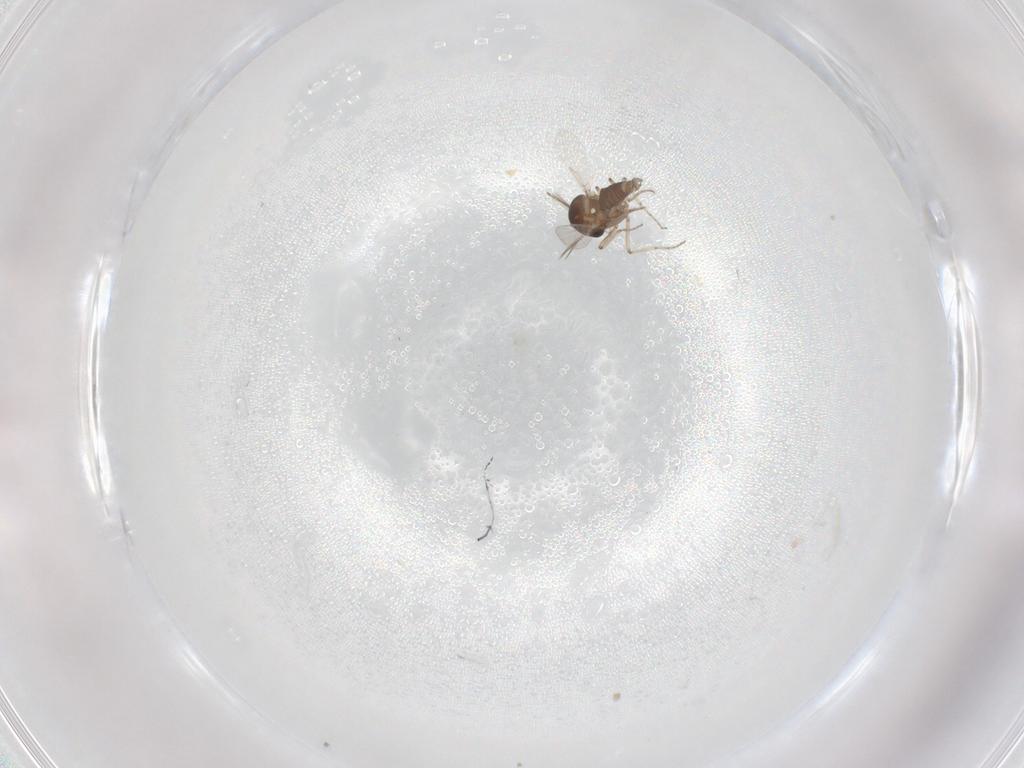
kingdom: Animalia
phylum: Arthropoda
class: Insecta
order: Diptera
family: Ceratopogonidae
